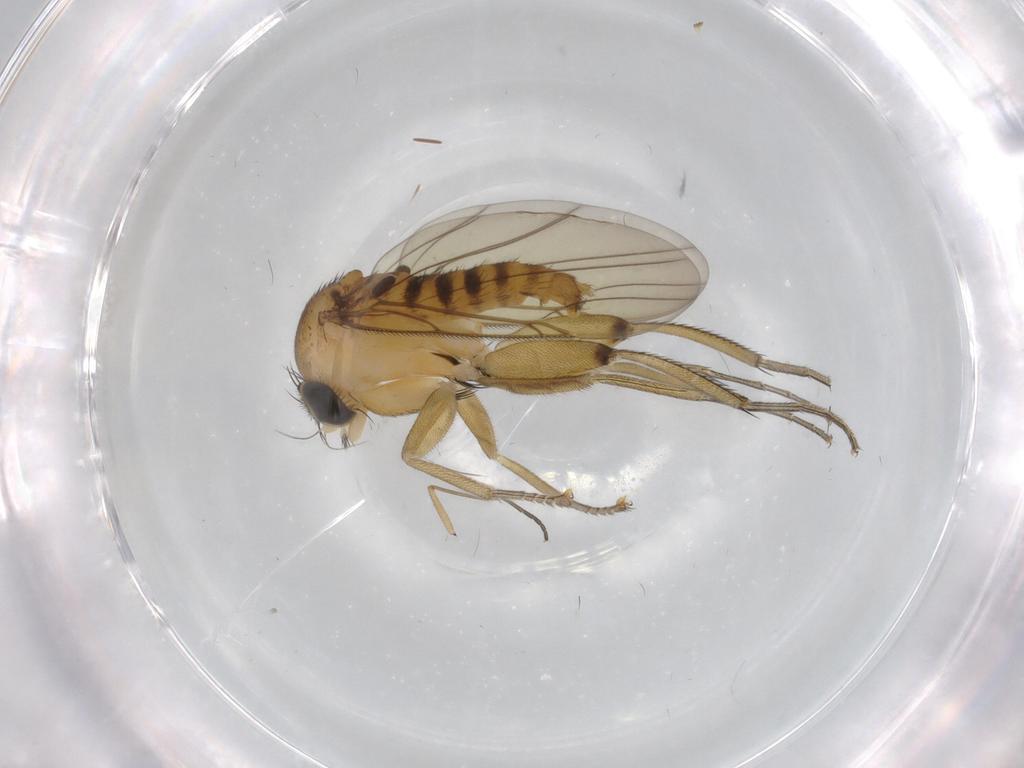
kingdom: Animalia
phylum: Arthropoda
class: Insecta
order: Diptera
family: Phoridae
